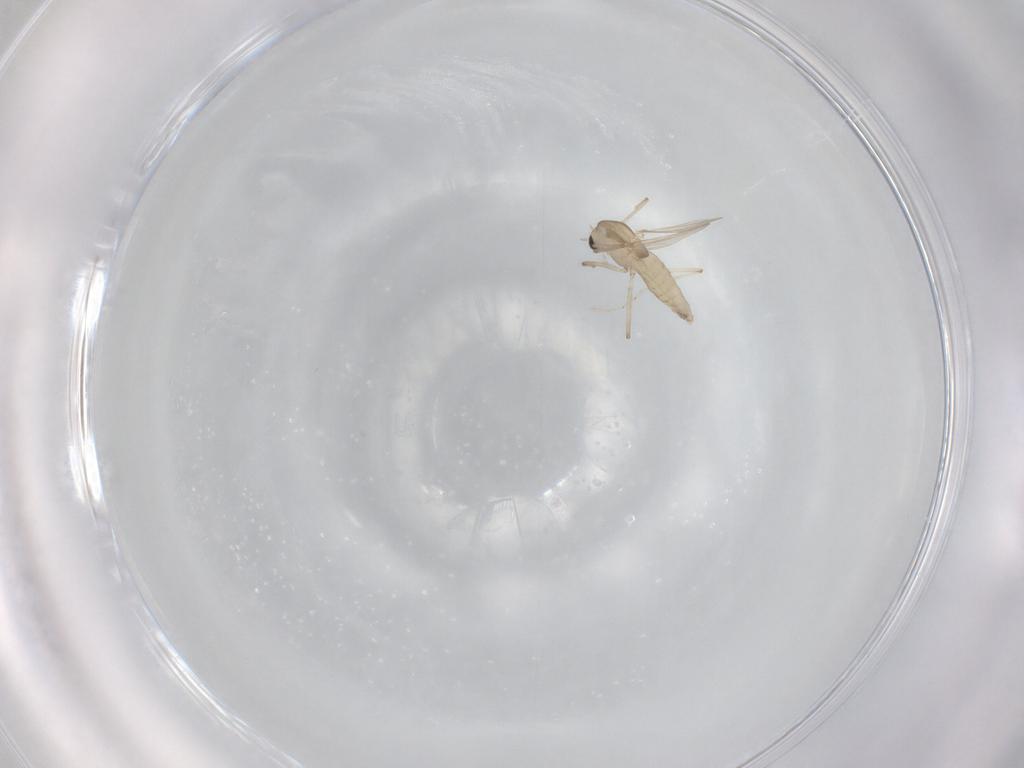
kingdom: Animalia
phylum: Arthropoda
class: Insecta
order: Diptera
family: Chironomidae
